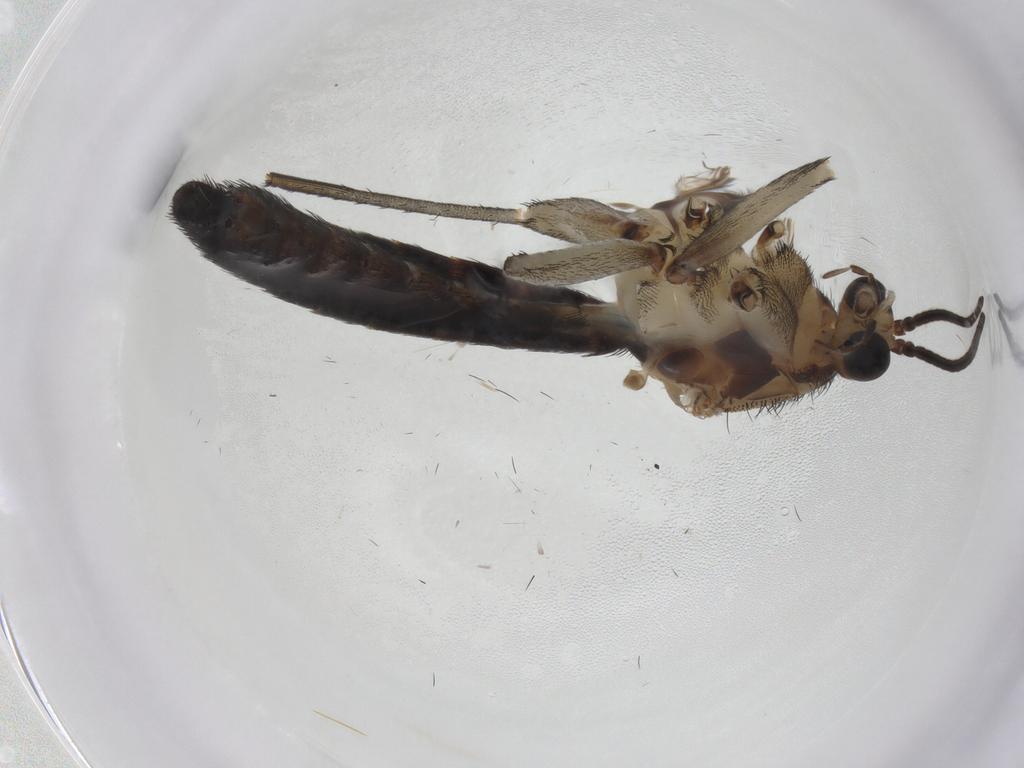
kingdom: Animalia
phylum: Arthropoda
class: Insecta
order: Diptera
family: Keroplatidae
